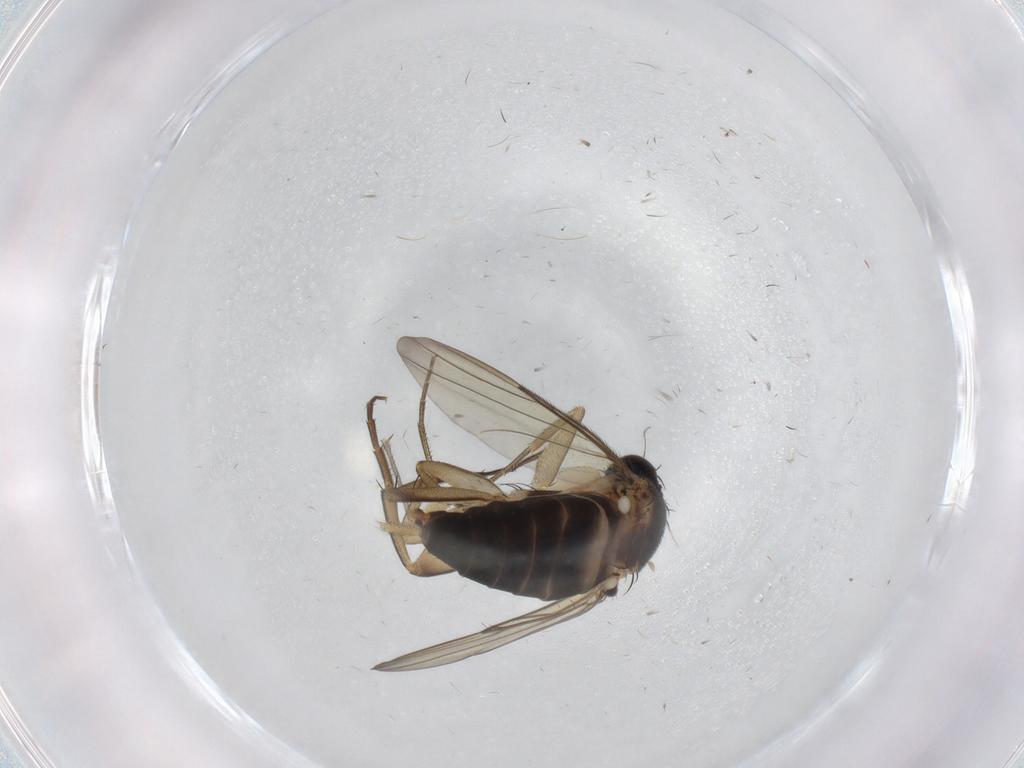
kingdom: Animalia
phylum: Arthropoda
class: Insecta
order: Diptera
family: Phoridae
